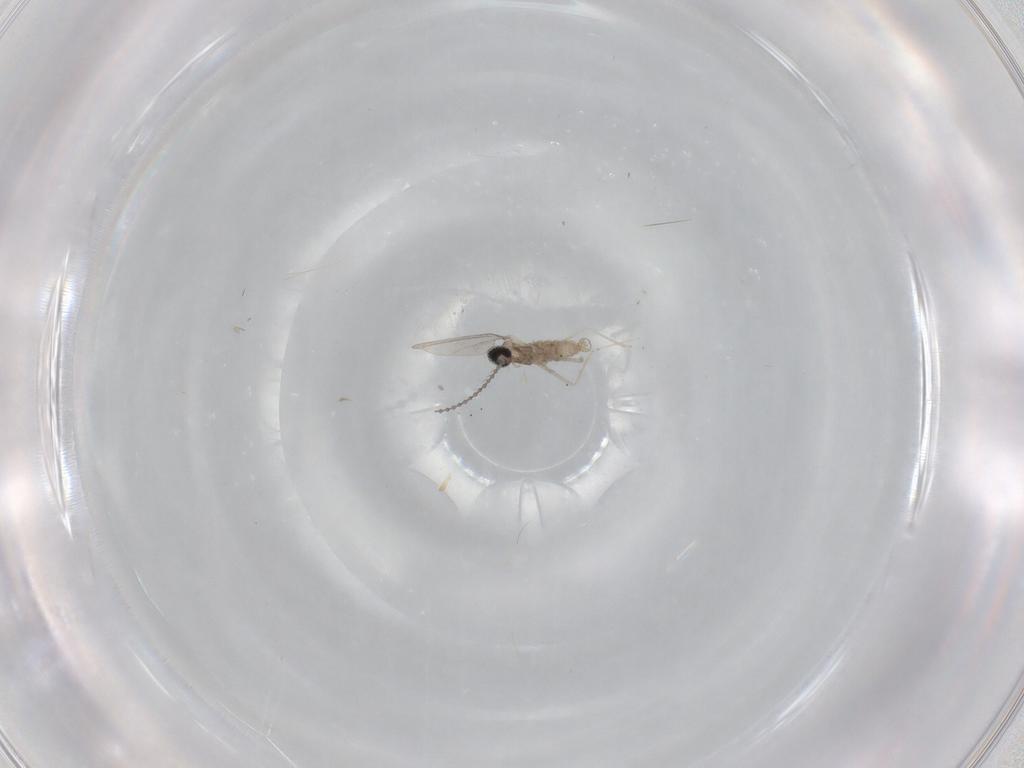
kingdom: Animalia
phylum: Arthropoda
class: Insecta
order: Diptera
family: Cecidomyiidae
